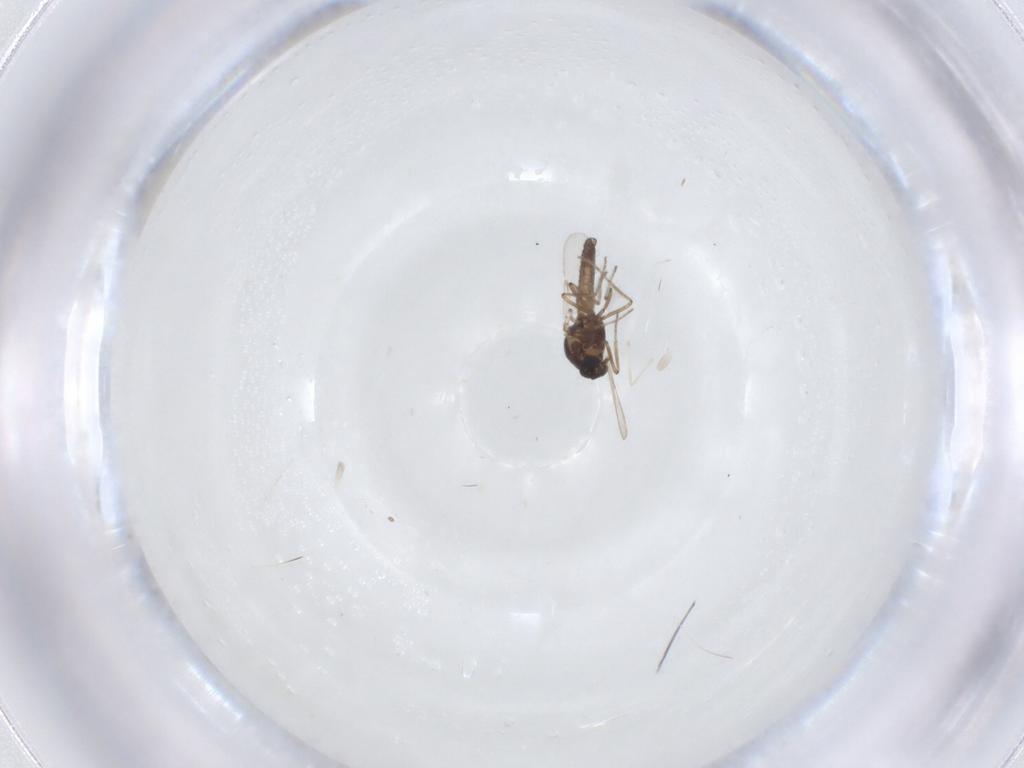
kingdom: Animalia
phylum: Arthropoda
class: Insecta
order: Diptera
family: Ceratopogonidae
